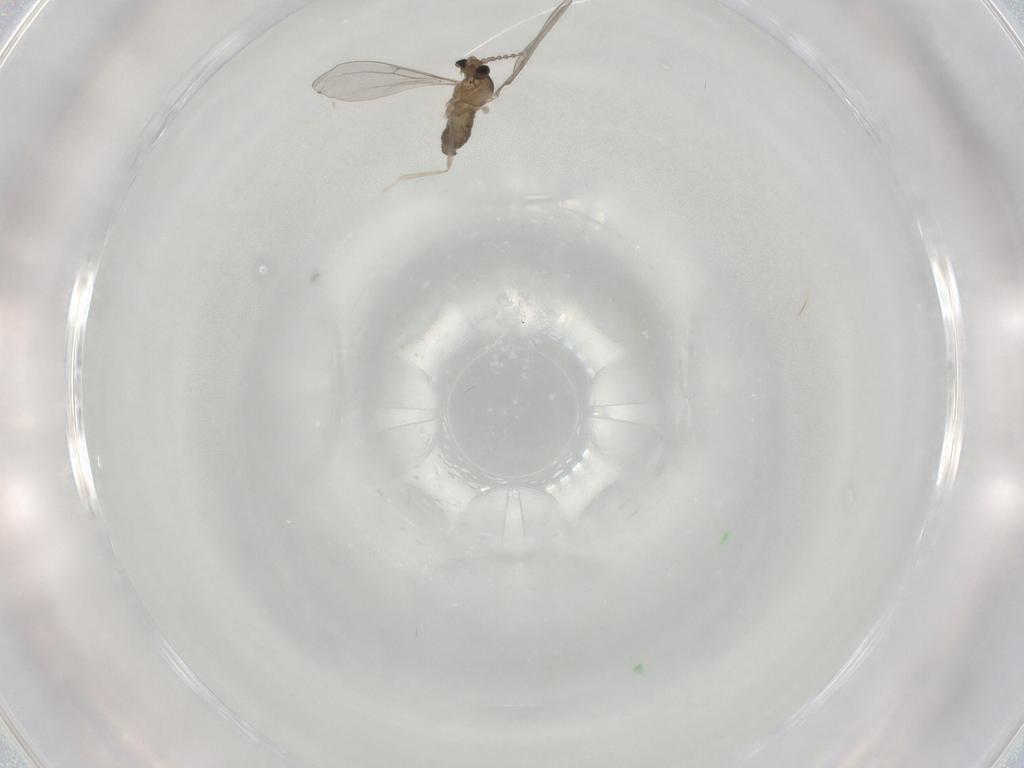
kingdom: Animalia
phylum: Arthropoda
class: Insecta
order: Diptera
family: Cecidomyiidae
